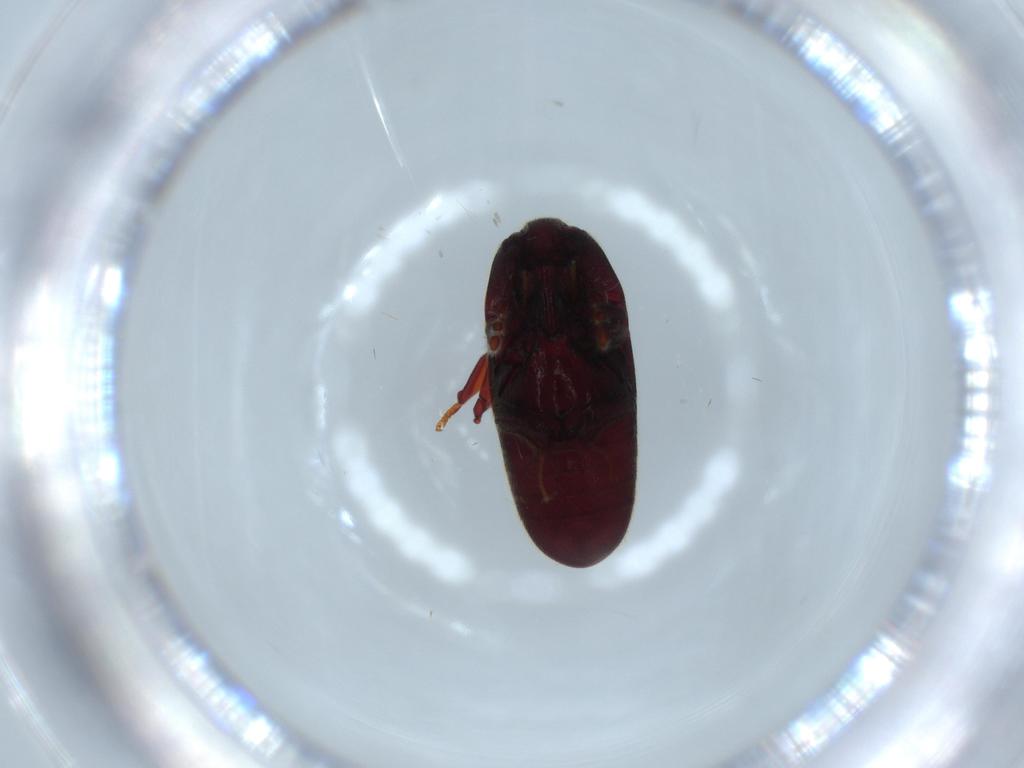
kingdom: Animalia
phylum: Arthropoda
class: Insecta
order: Coleoptera
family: Throscidae
